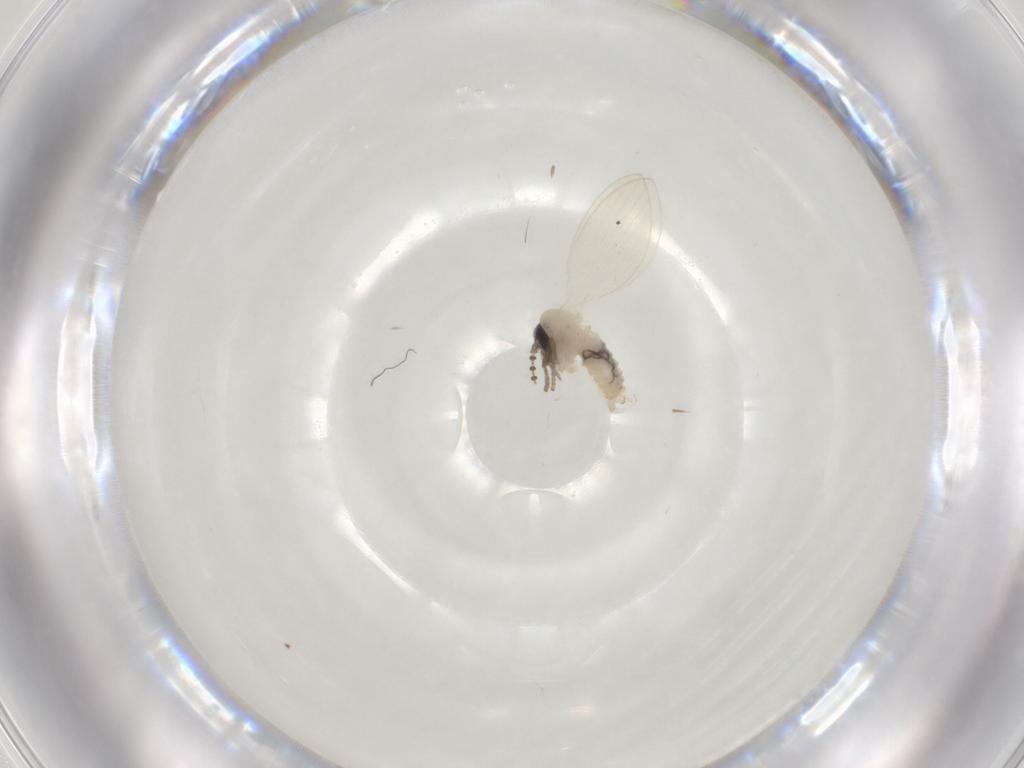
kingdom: Animalia
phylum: Arthropoda
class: Insecta
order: Diptera
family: Psychodidae
